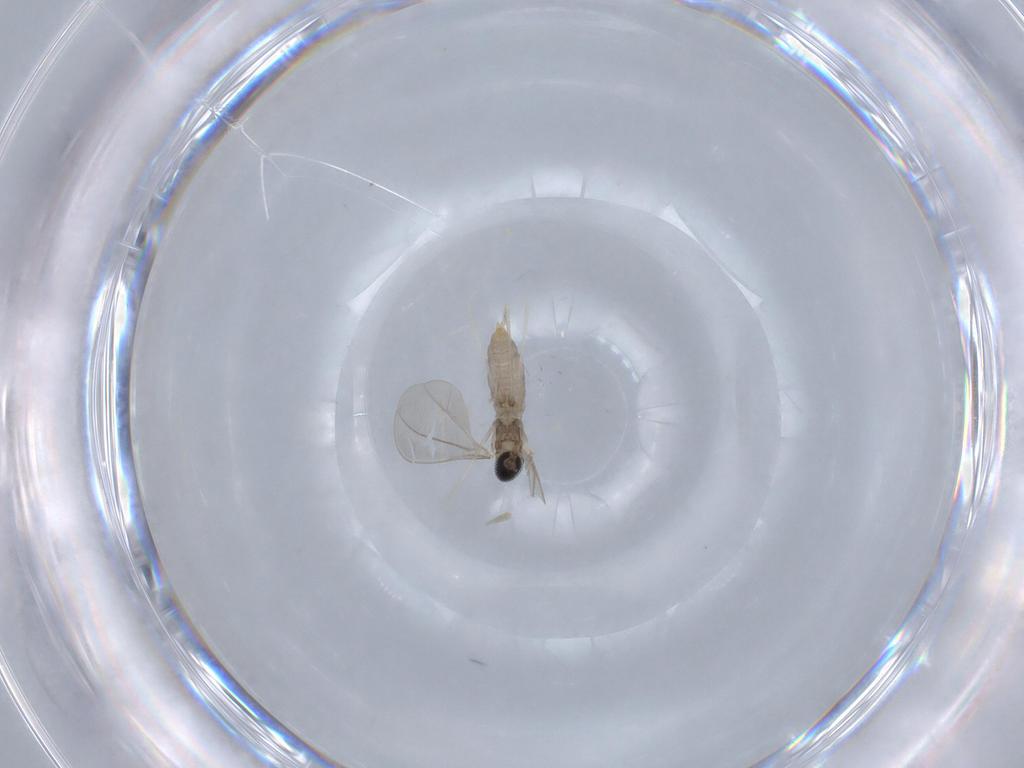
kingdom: Animalia
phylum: Arthropoda
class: Insecta
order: Diptera
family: Cecidomyiidae
